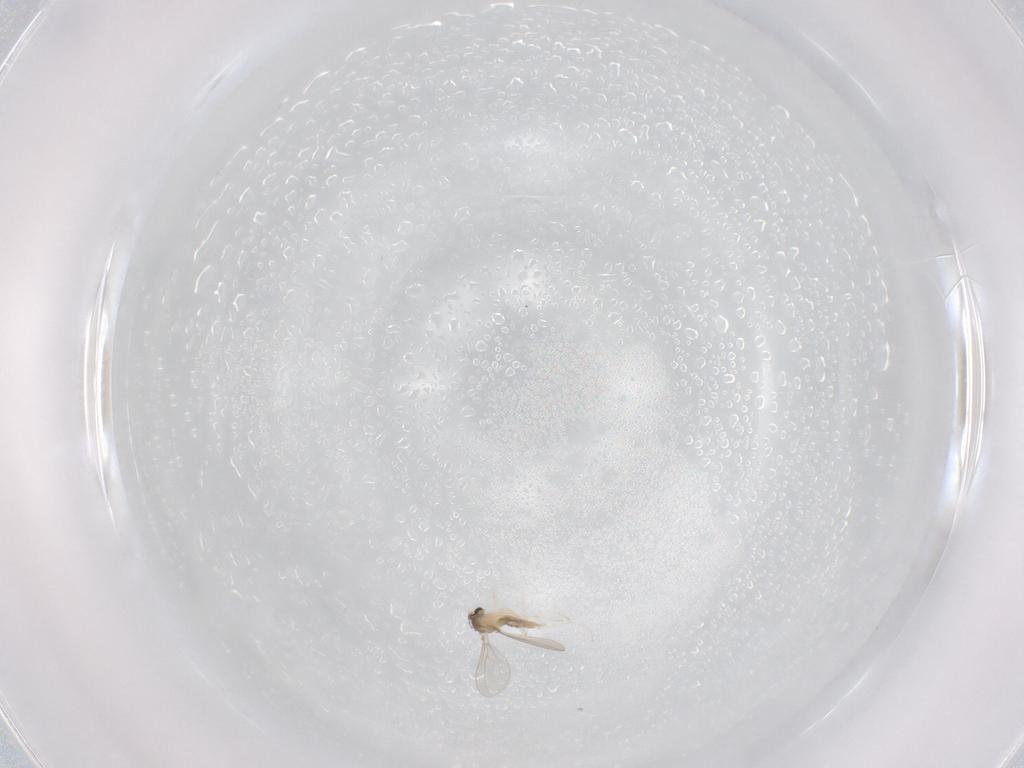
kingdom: Animalia
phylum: Arthropoda
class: Insecta
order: Diptera
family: Cecidomyiidae
